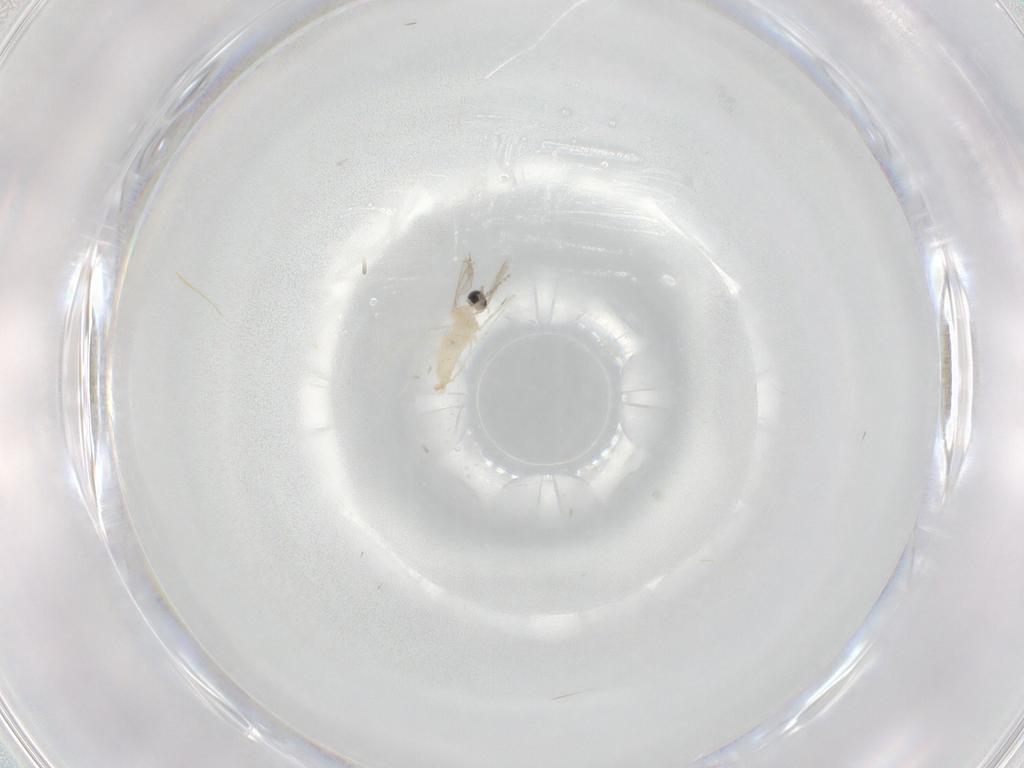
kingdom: Animalia
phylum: Arthropoda
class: Insecta
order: Diptera
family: Cecidomyiidae
